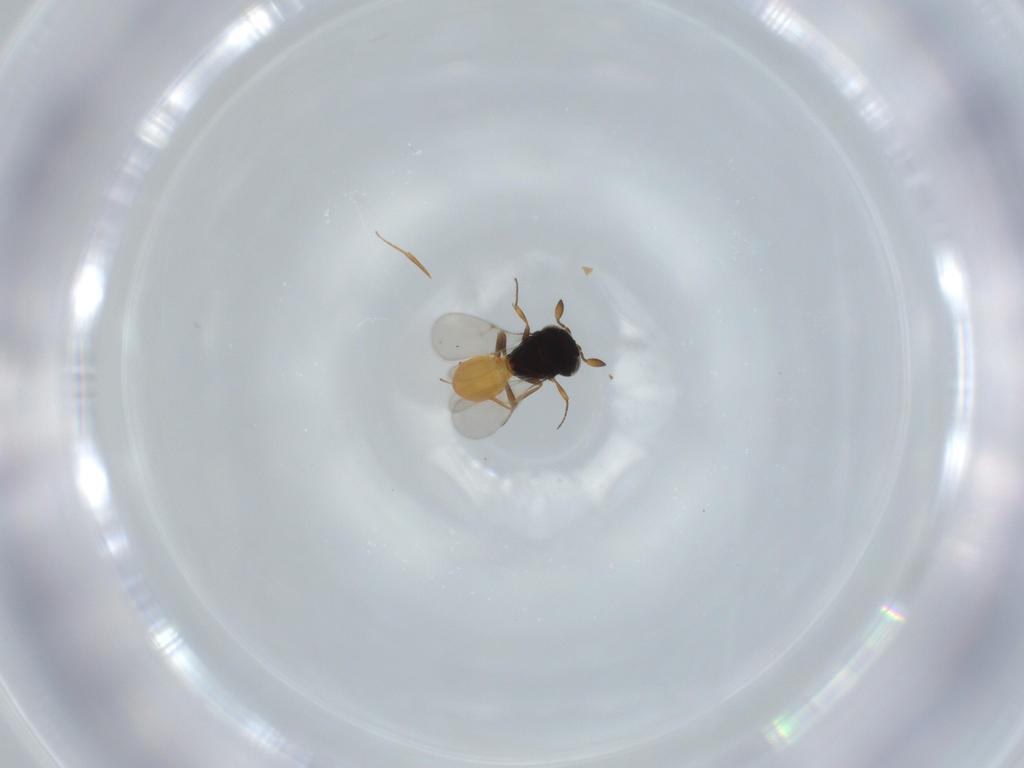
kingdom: Animalia
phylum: Arthropoda
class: Insecta
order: Hymenoptera
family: Scelionidae
